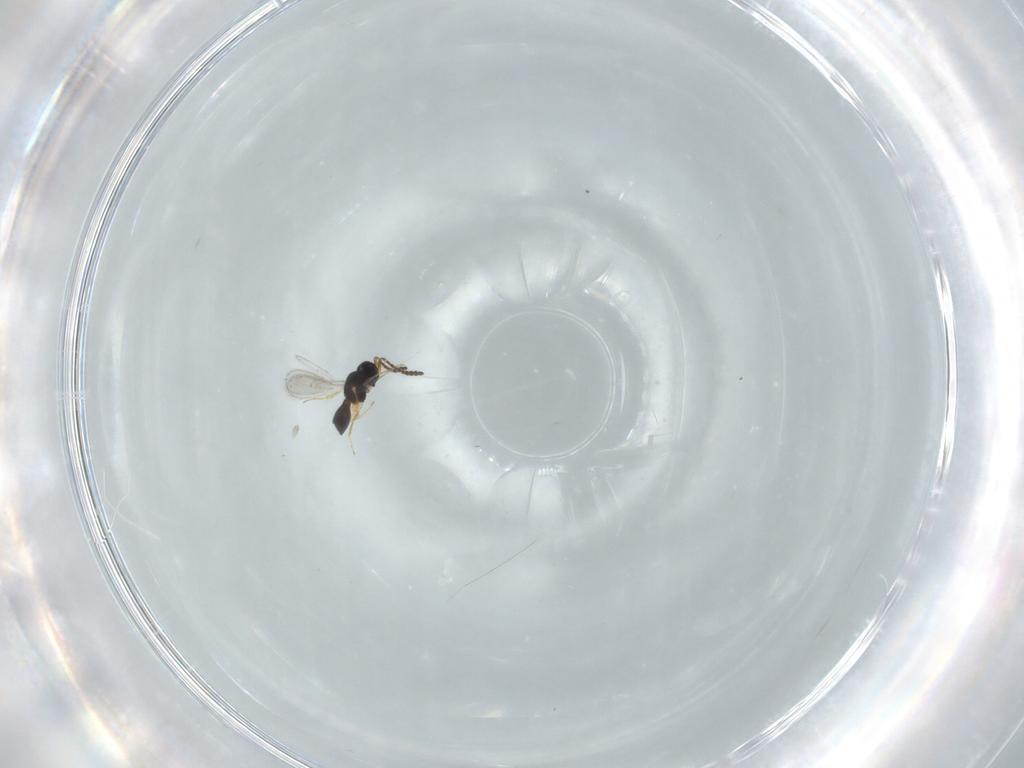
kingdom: Animalia
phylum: Arthropoda
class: Insecta
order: Hymenoptera
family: Scelionidae
